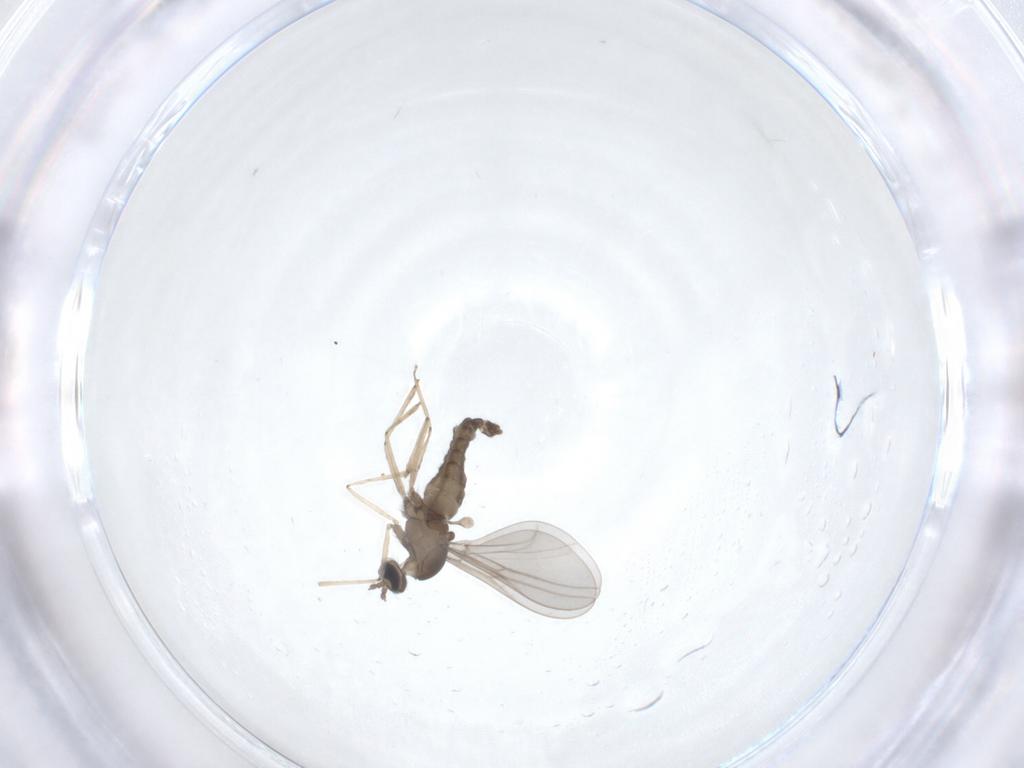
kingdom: Animalia
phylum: Arthropoda
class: Insecta
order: Diptera
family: Cecidomyiidae
